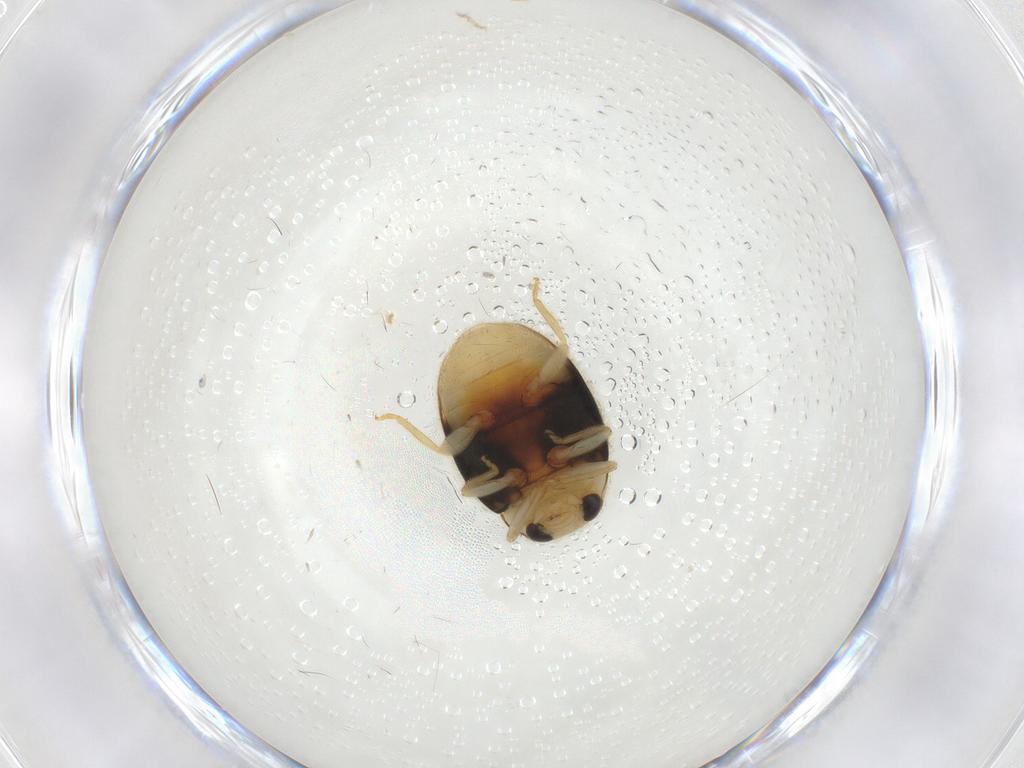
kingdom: Animalia
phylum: Arthropoda
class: Insecta
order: Coleoptera
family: Coccinellidae
